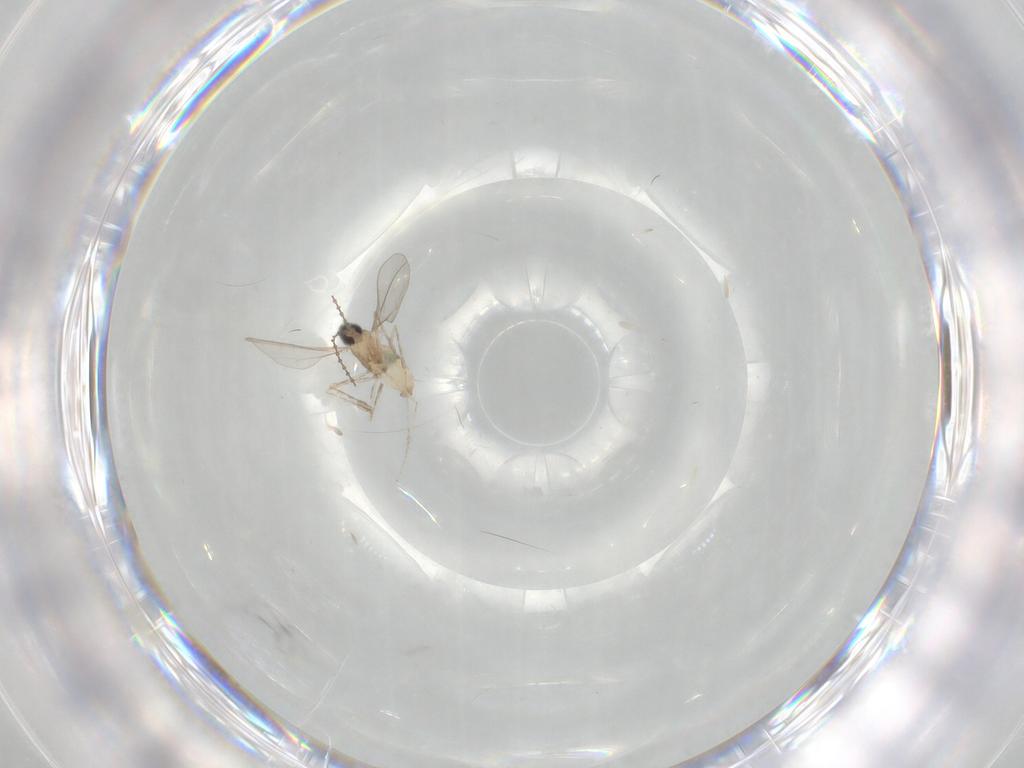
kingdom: Animalia
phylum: Arthropoda
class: Insecta
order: Diptera
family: Cecidomyiidae
